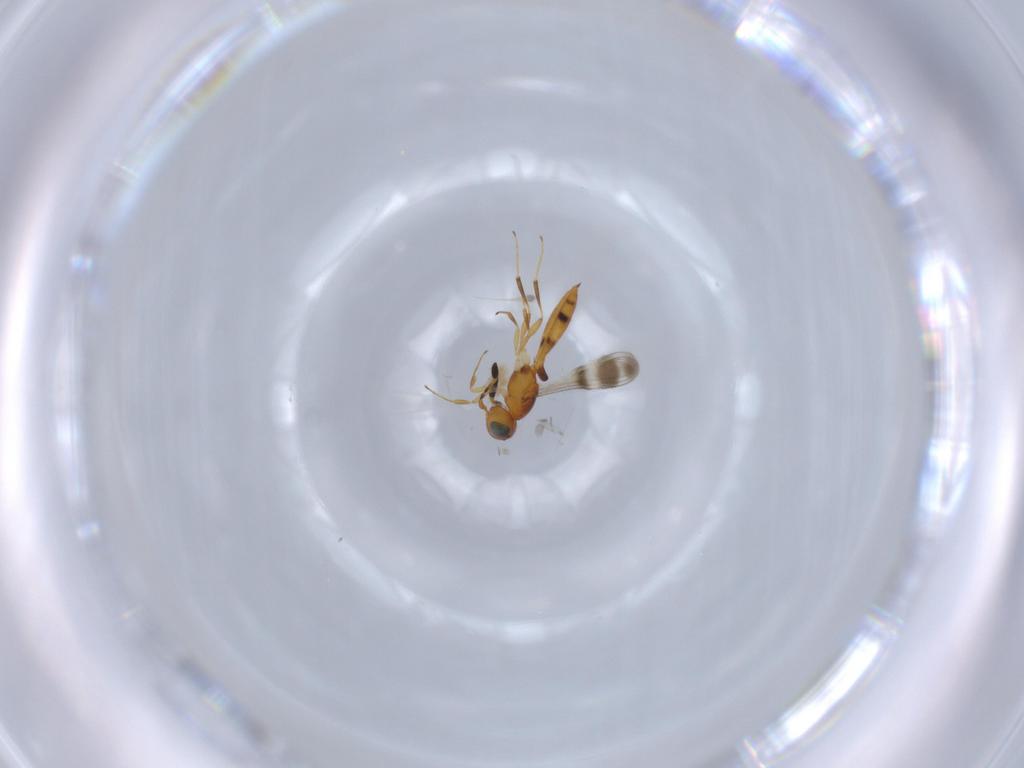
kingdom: Animalia
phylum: Arthropoda
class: Insecta
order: Hymenoptera
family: Scelionidae
